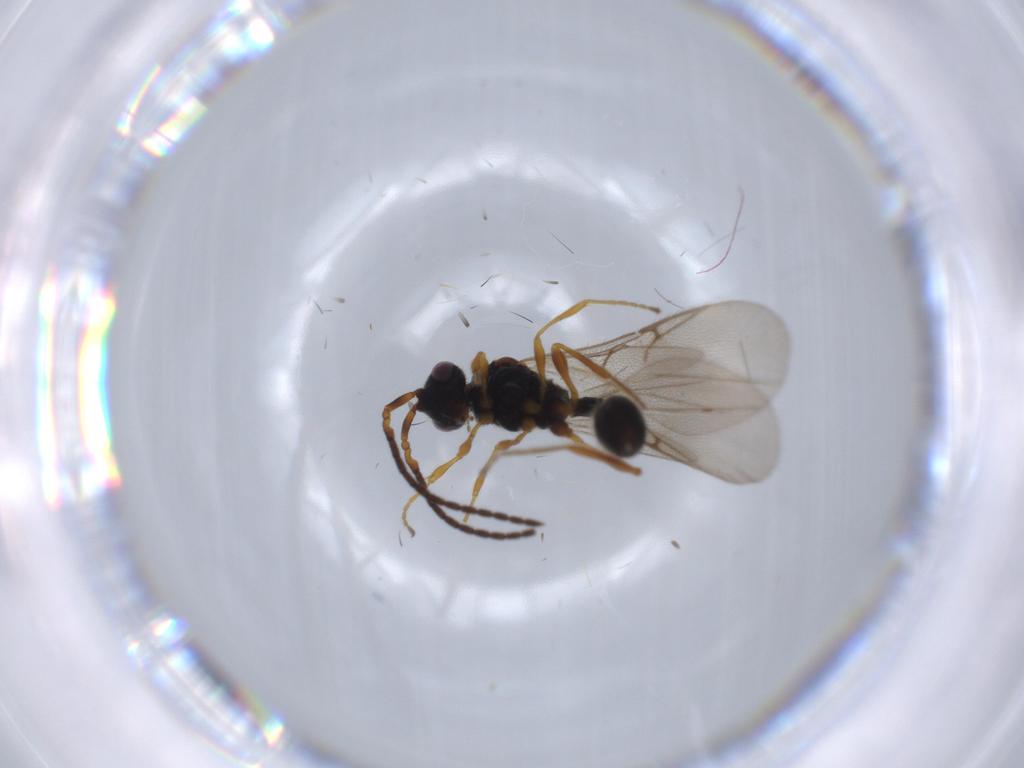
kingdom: Animalia
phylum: Arthropoda
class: Insecta
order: Hymenoptera
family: Diapriidae
